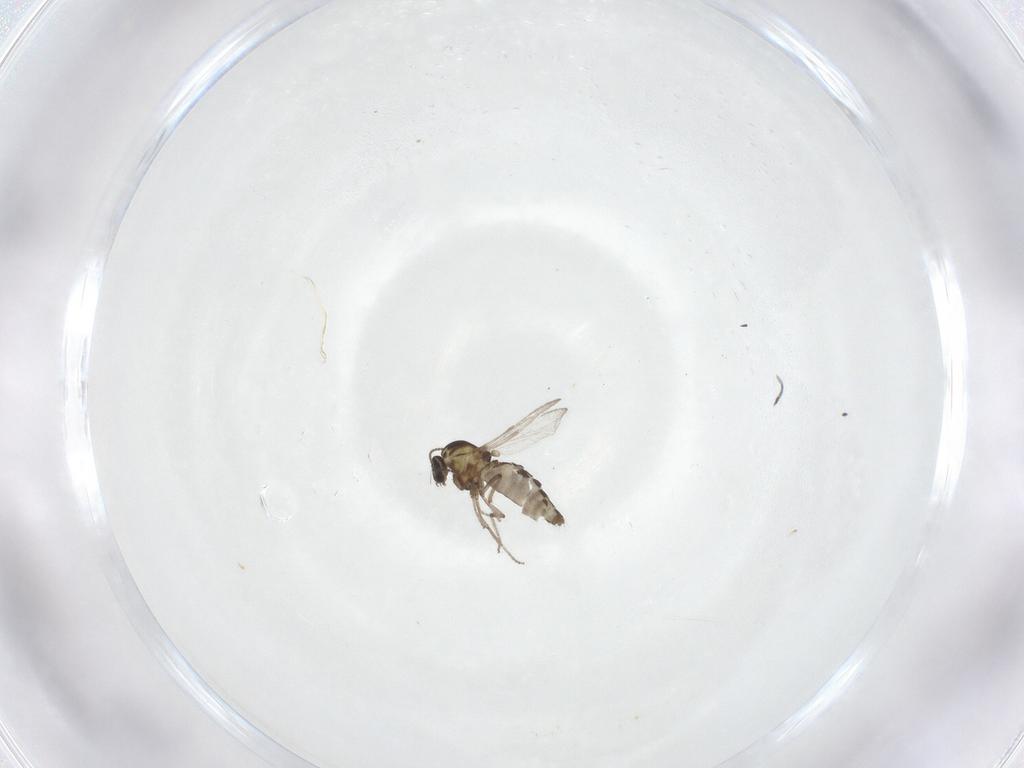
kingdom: Animalia
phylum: Arthropoda
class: Insecta
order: Diptera
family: Ceratopogonidae
